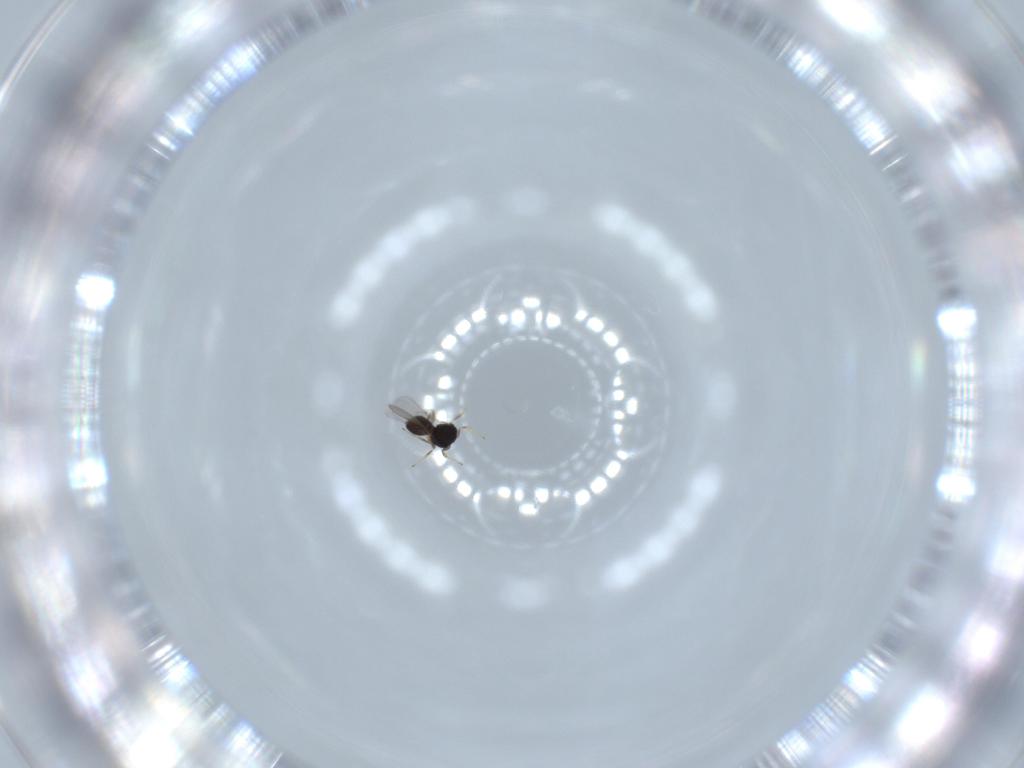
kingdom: Animalia
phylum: Arthropoda
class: Insecta
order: Hymenoptera
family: Scelionidae
